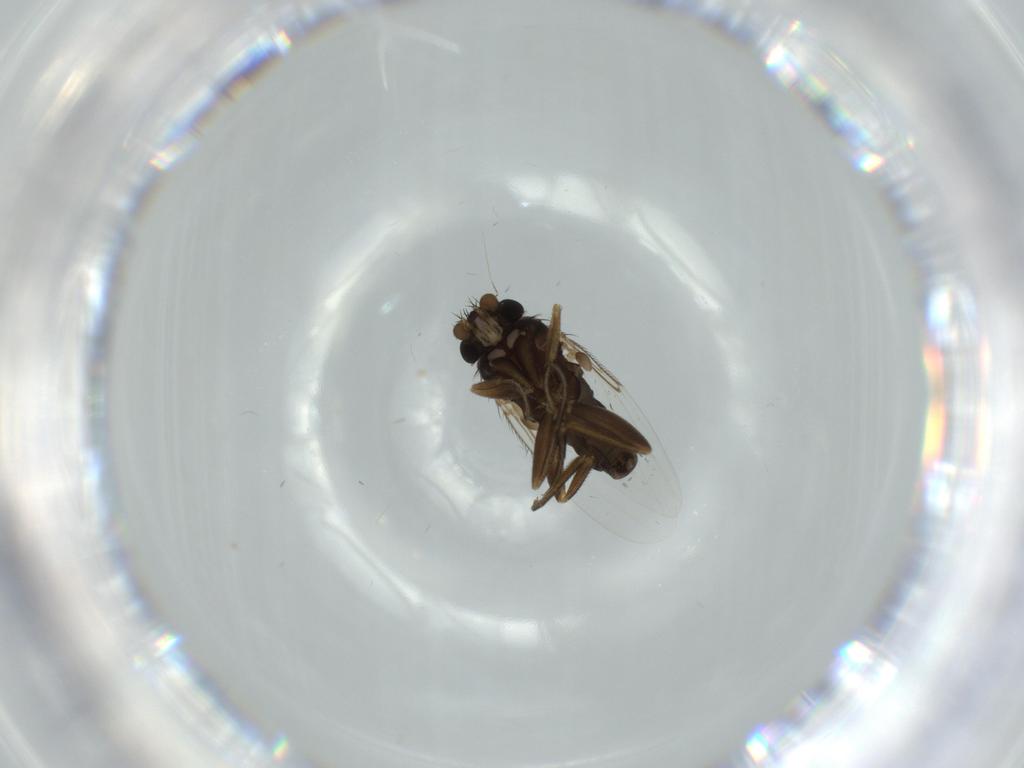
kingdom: Animalia
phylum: Arthropoda
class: Insecta
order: Diptera
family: Phoridae
